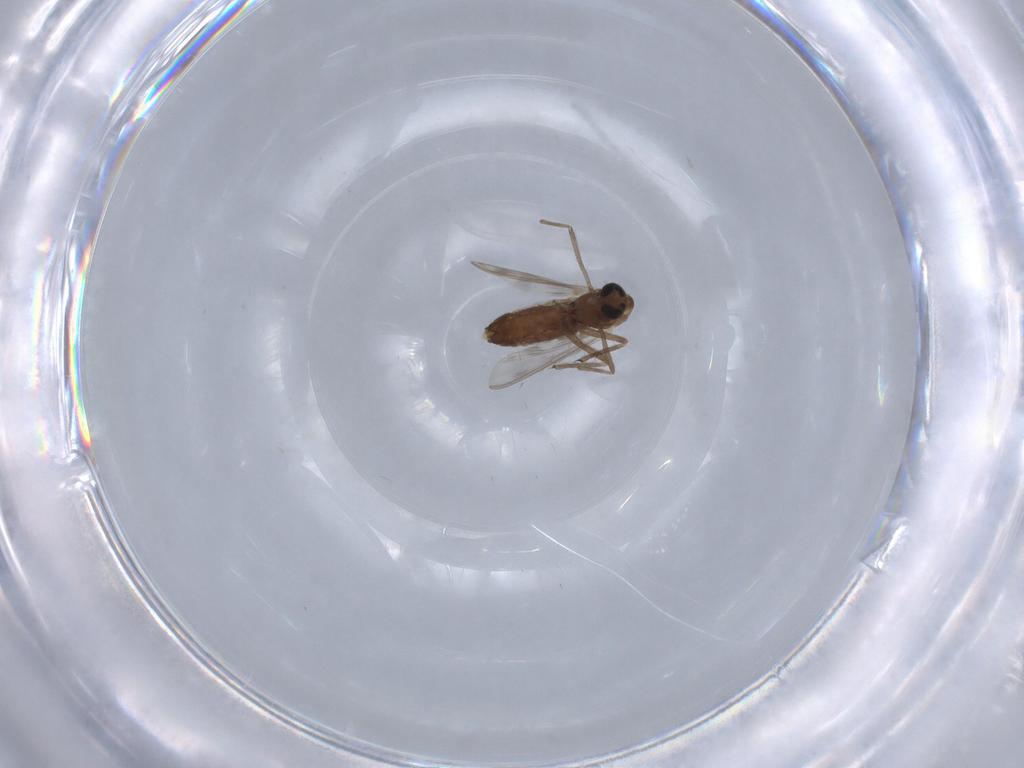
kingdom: Animalia
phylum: Arthropoda
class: Insecta
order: Diptera
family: Chironomidae
